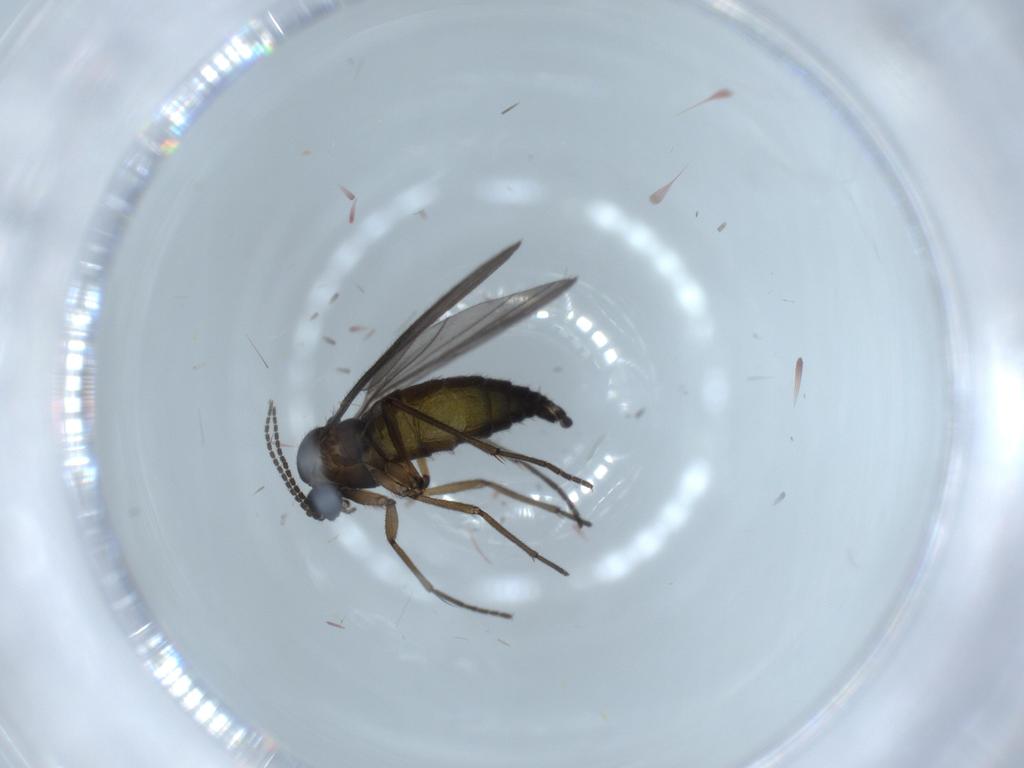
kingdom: Animalia
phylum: Arthropoda
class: Insecta
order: Diptera
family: Sciaridae
